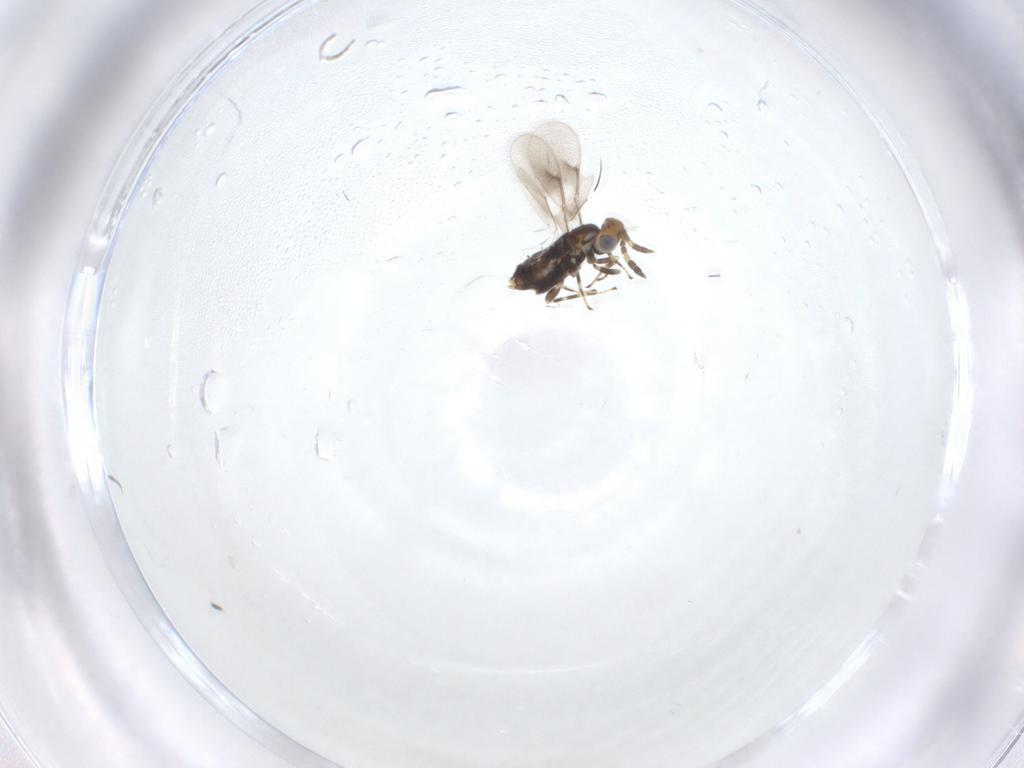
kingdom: Animalia
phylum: Arthropoda
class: Insecta
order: Hymenoptera
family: Aphelinidae
